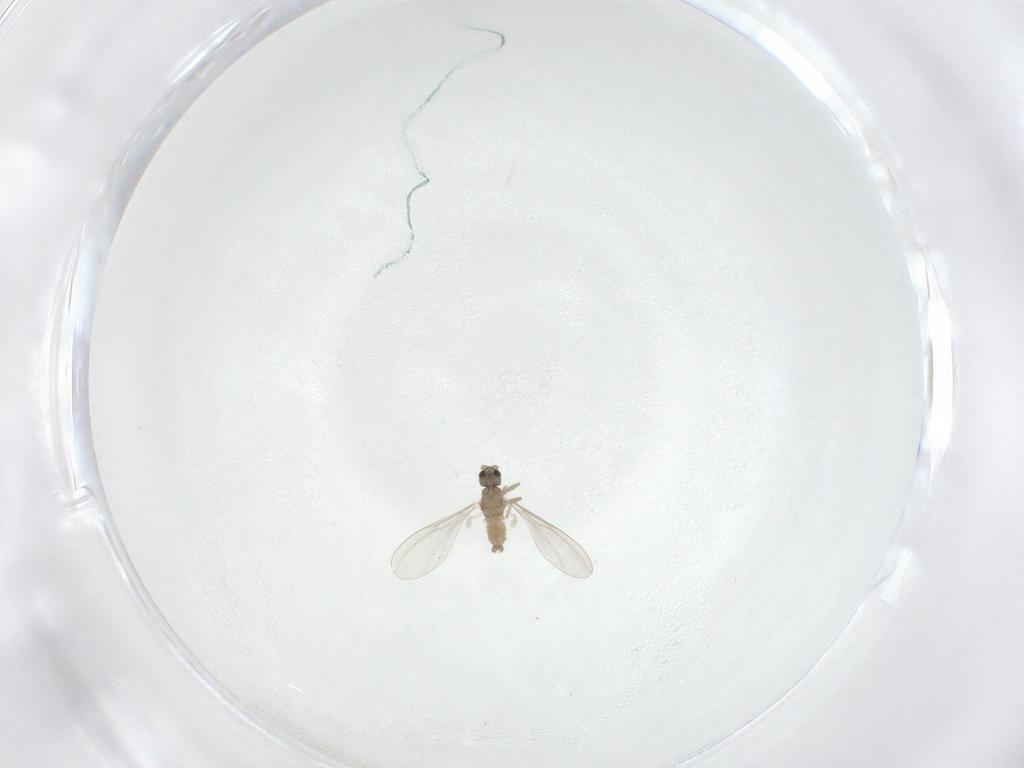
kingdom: Animalia
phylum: Arthropoda
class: Insecta
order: Diptera
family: Cecidomyiidae
